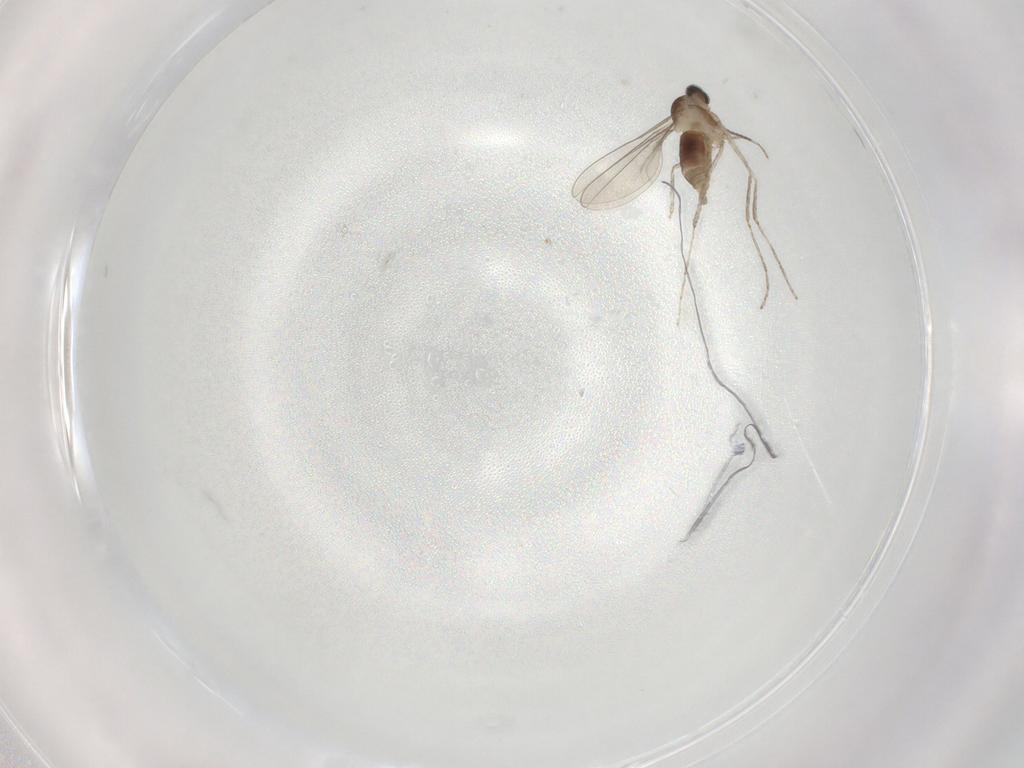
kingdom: Animalia
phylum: Arthropoda
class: Insecta
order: Diptera
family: Cecidomyiidae
